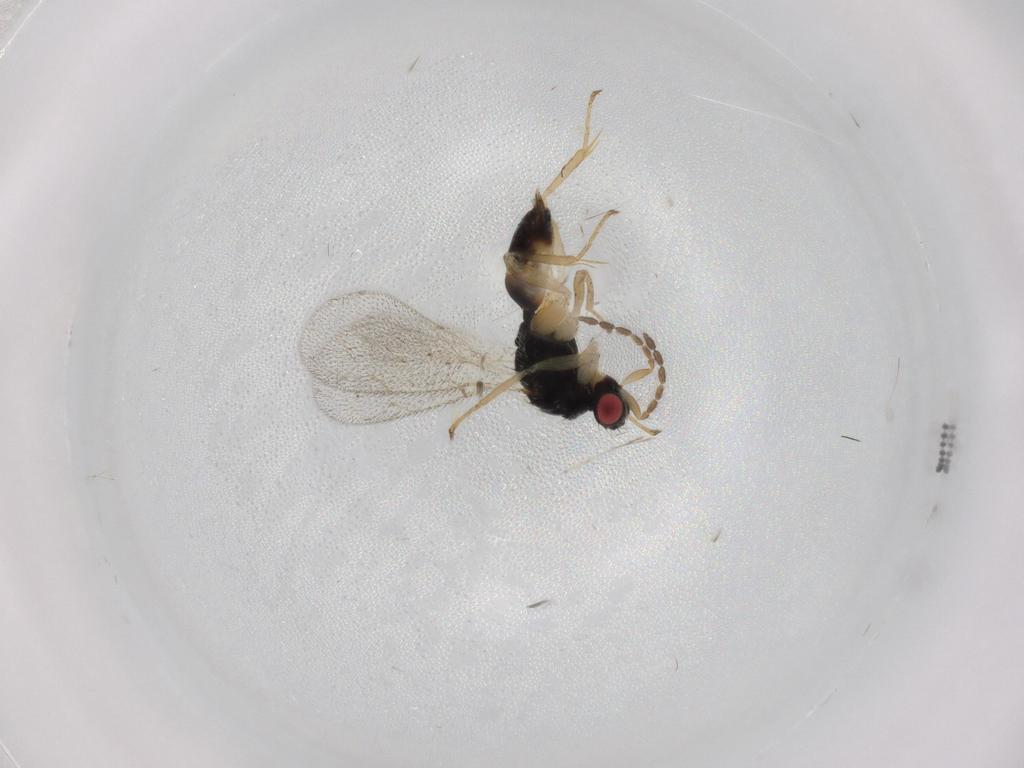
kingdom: Animalia
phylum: Arthropoda
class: Insecta
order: Hymenoptera
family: Eulophidae
